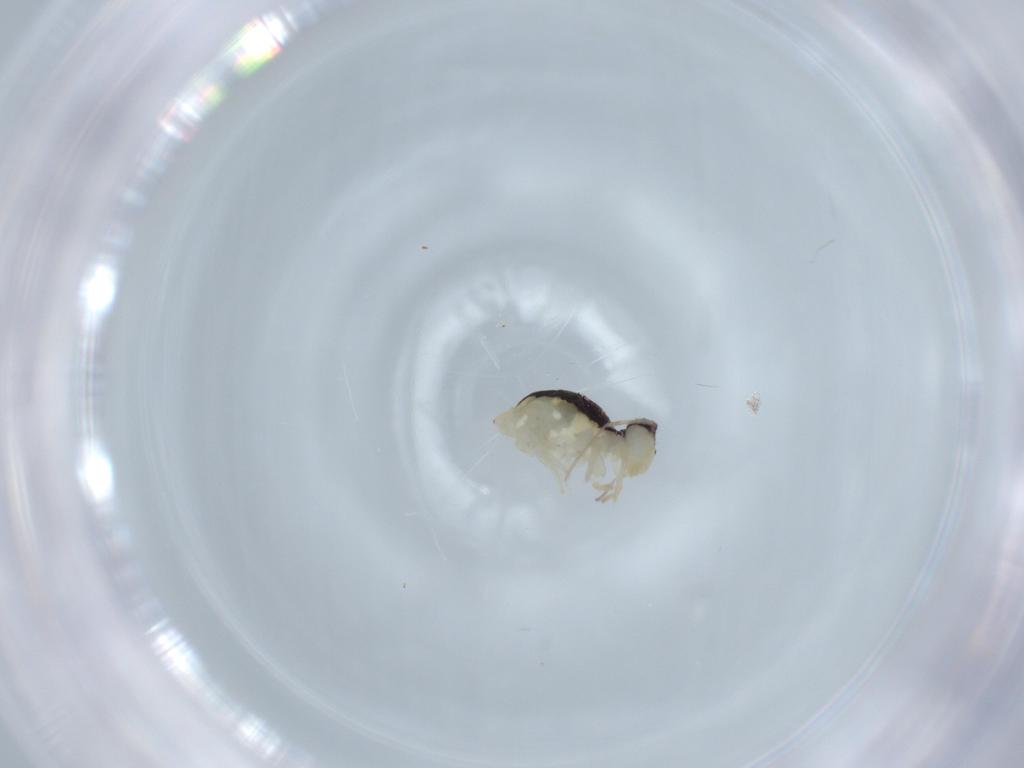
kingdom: Animalia
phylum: Arthropoda
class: Collembola
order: Symphypleona
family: Bourletiellidae
